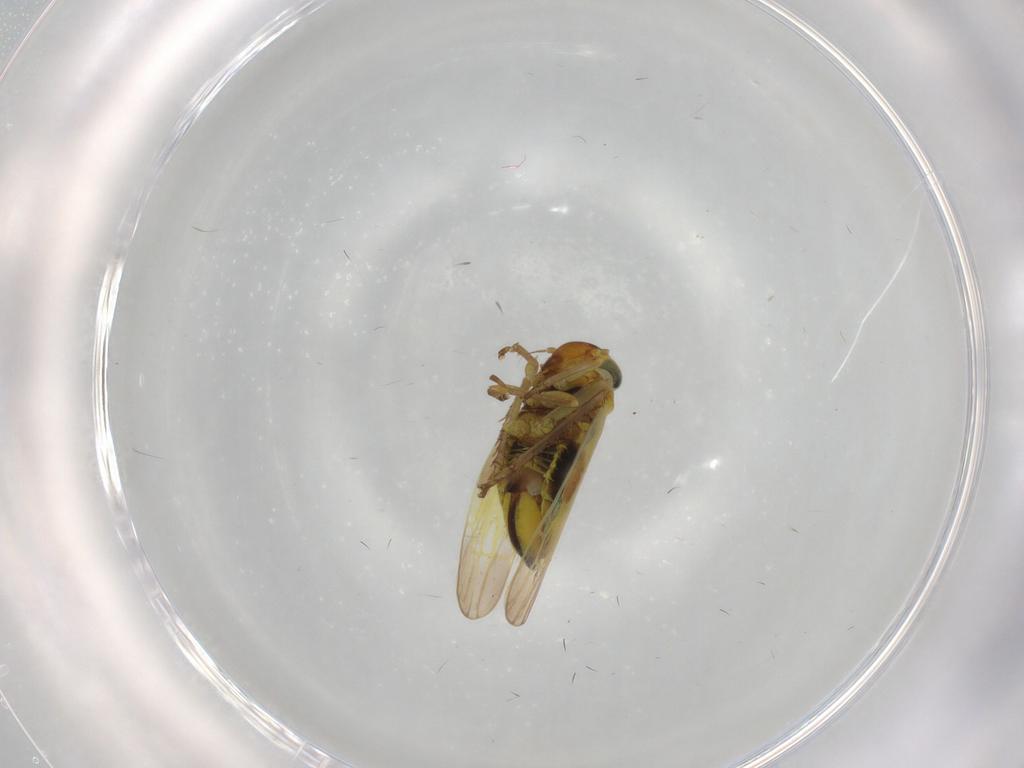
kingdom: Animalia
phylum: Arthropoda
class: Insecta
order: Hemiptera
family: Cicadellidae
